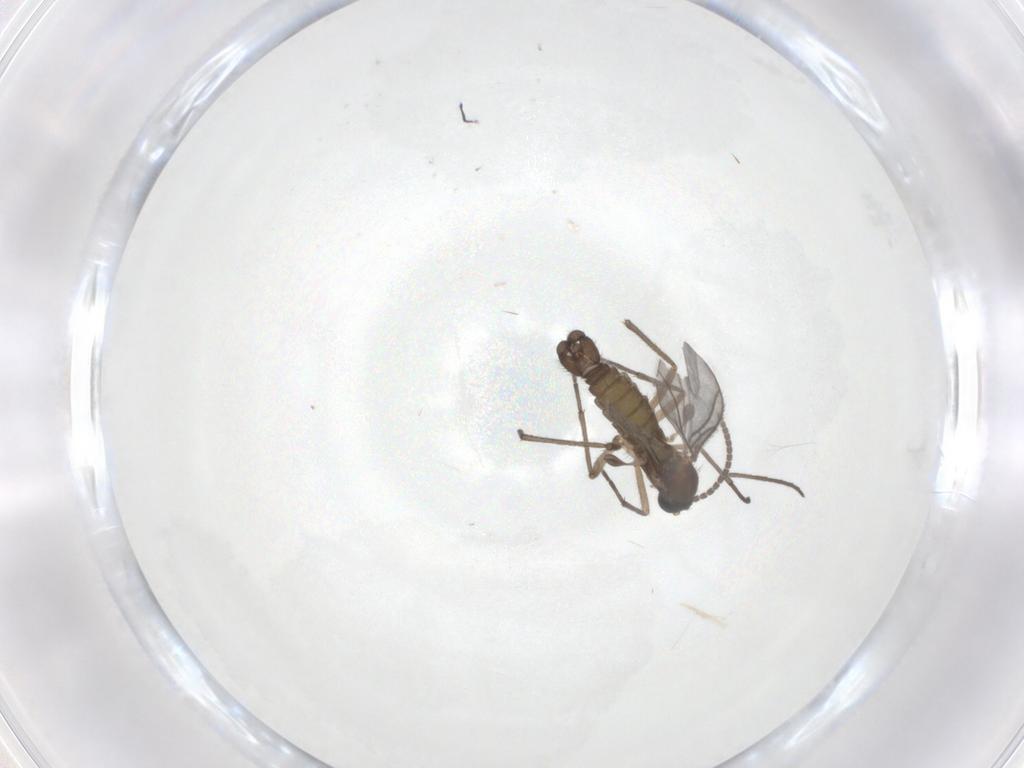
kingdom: Animalia
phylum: Arthropoda
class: Insecta
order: Diptera
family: Sciaridae
